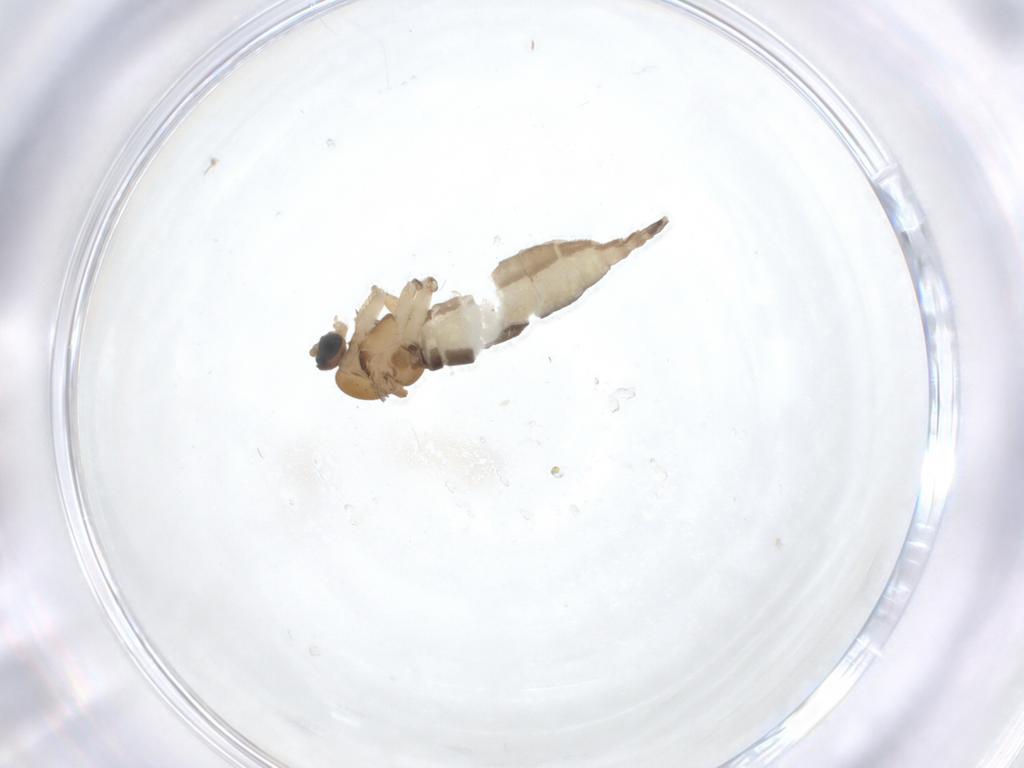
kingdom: Animalia
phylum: Arthropoda
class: Insecta
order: Diptera
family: Sciaridae
